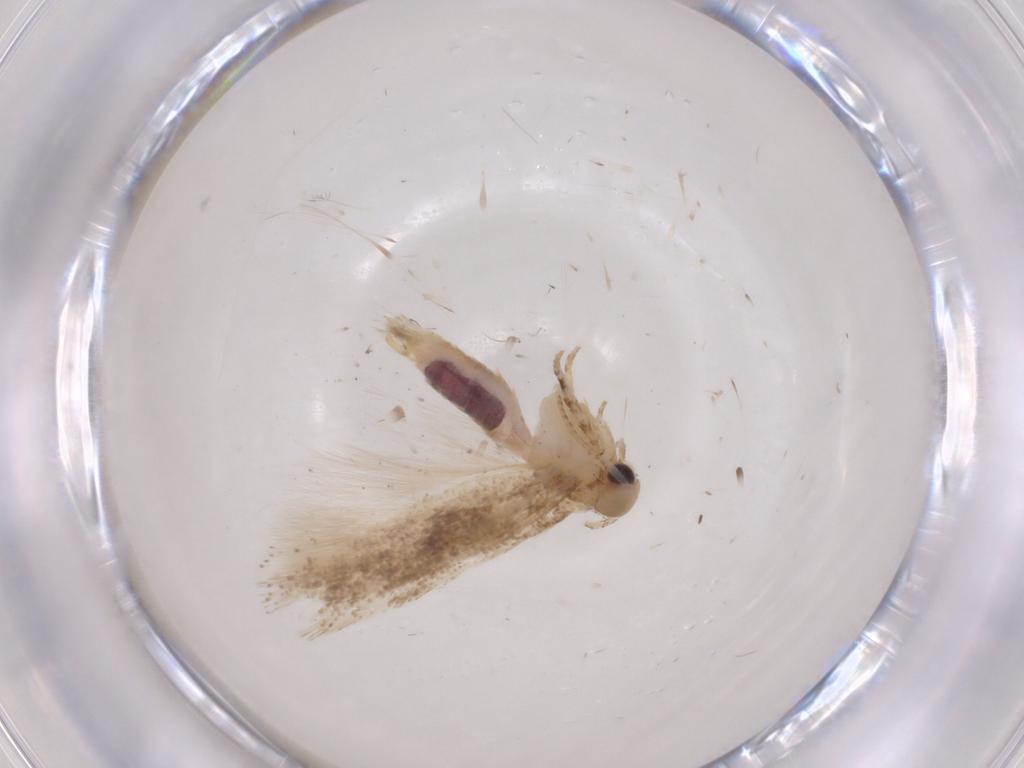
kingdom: Animalia
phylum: Arthropoda
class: Insecta
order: Lepidoptera
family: Gelechiidae
